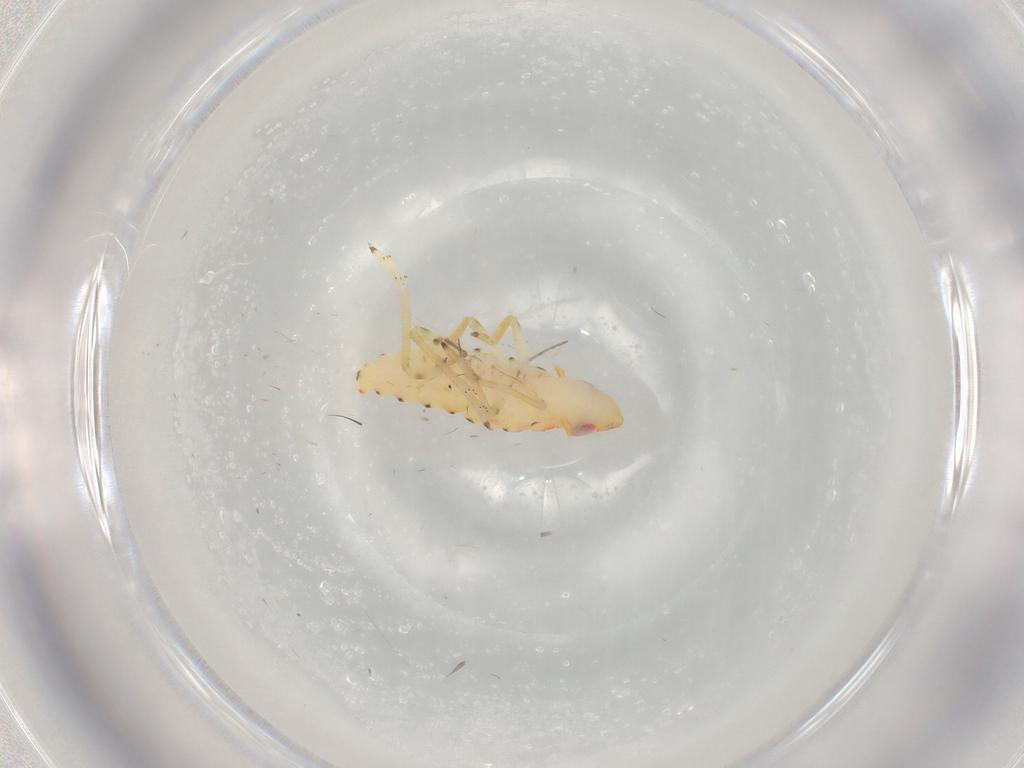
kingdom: Animalia
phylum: Arthropoda
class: Insecta
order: Hemiptera
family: Tropiduchidae
